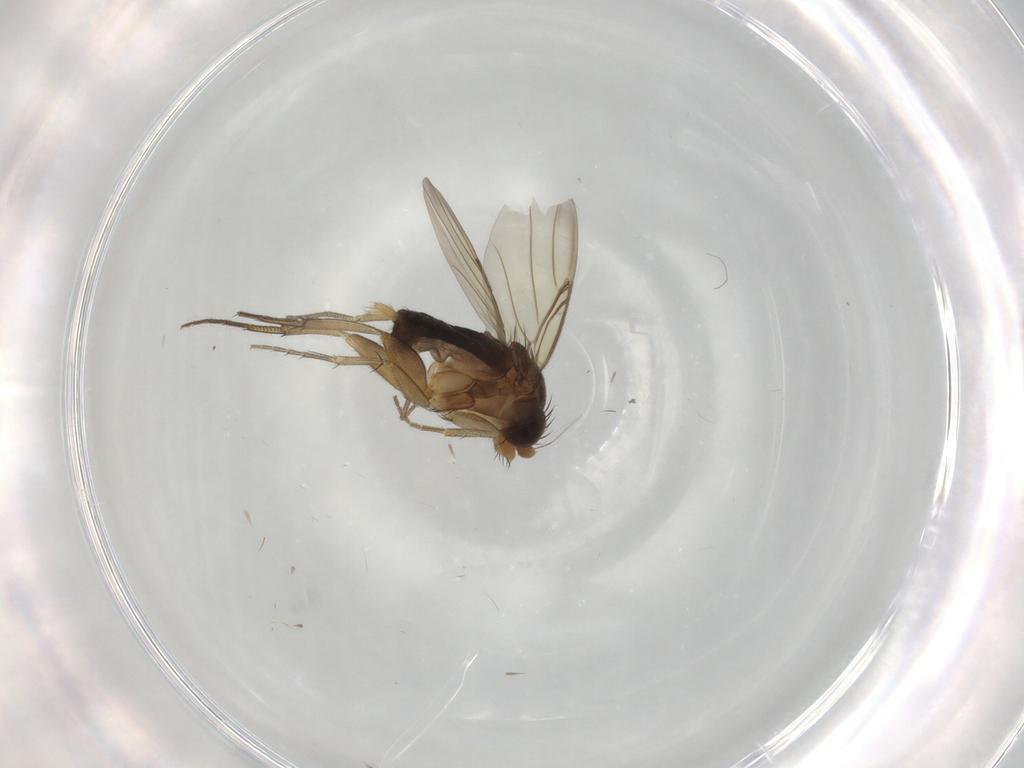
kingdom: Animalia
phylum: Arthropoda
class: Insecta
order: Diptera
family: Phoridae
